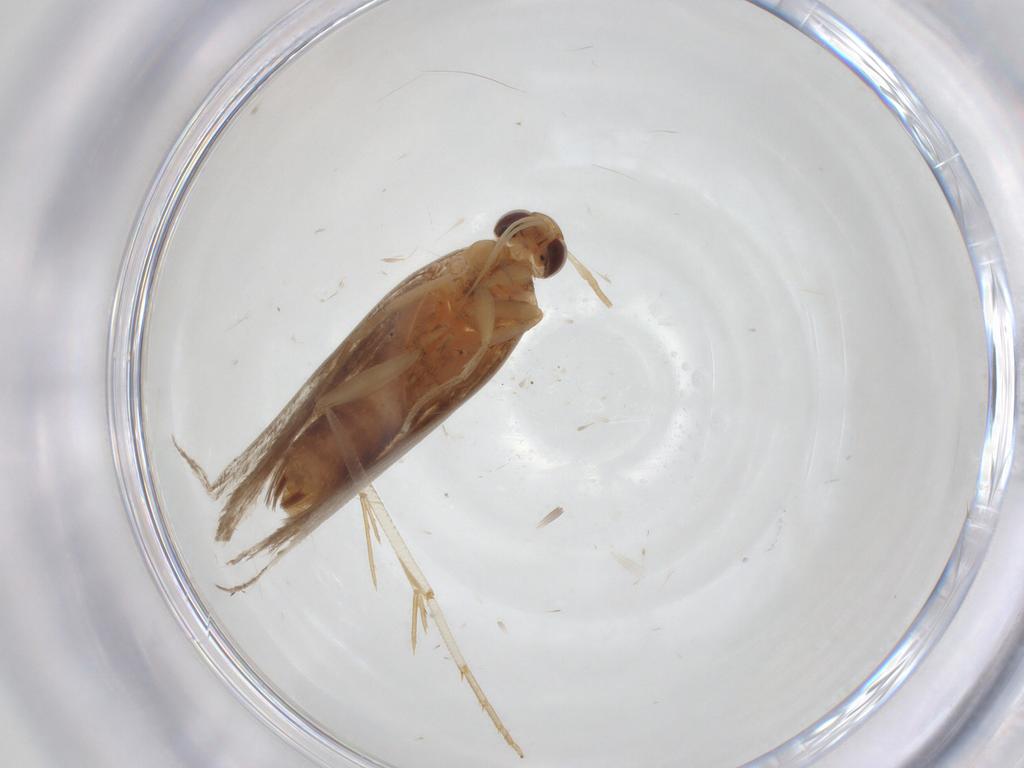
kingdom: Animalia
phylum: Arthropoda
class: Insecta
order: Lepidoptera
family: Gelechiidae
